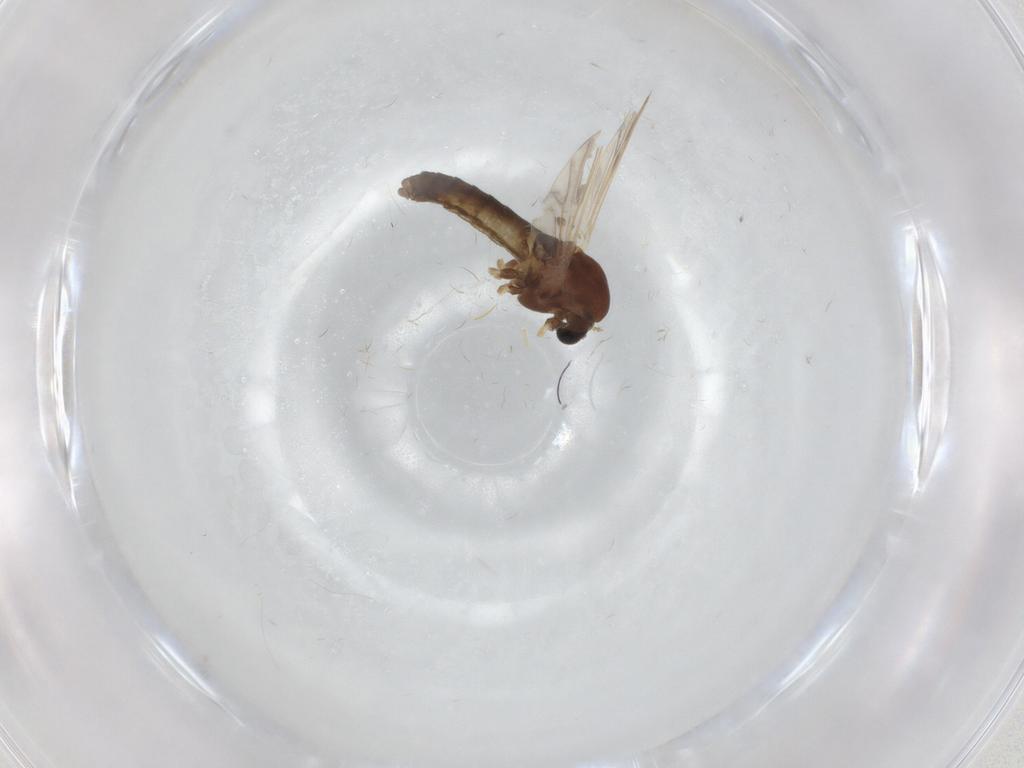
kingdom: Animalia
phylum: Arthropoda
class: Insecta
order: Diptera
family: Chironomidae
